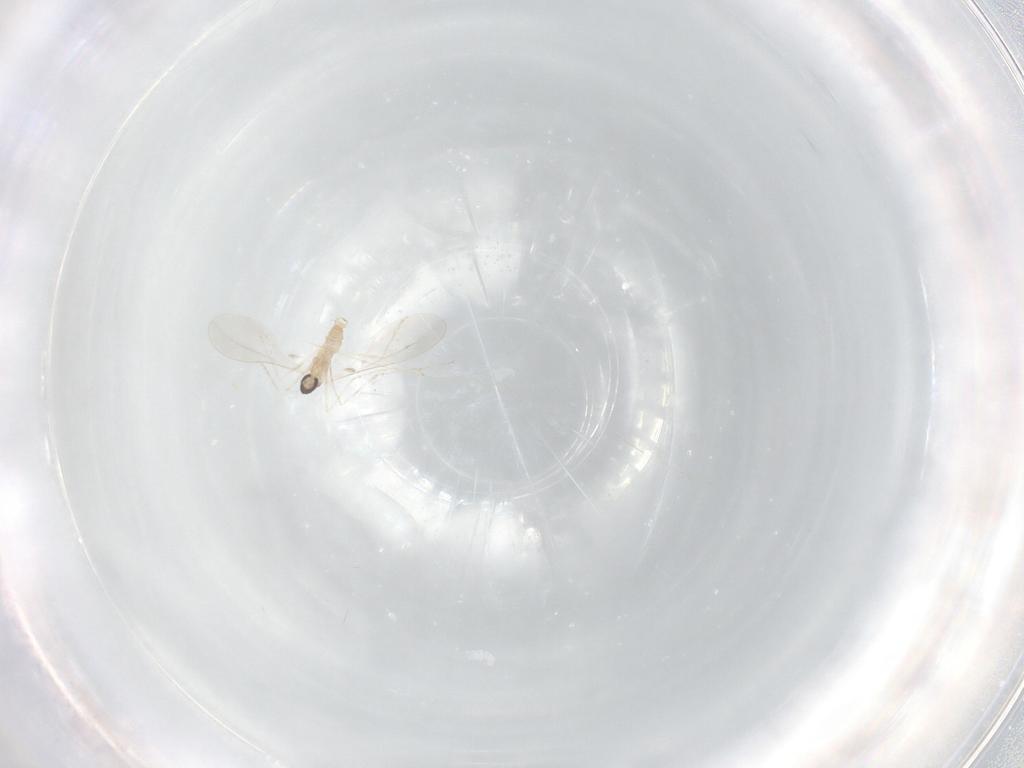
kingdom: Animalia
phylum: Arthropoda
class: Insecta
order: Diptera
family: Cecidomyiidae
